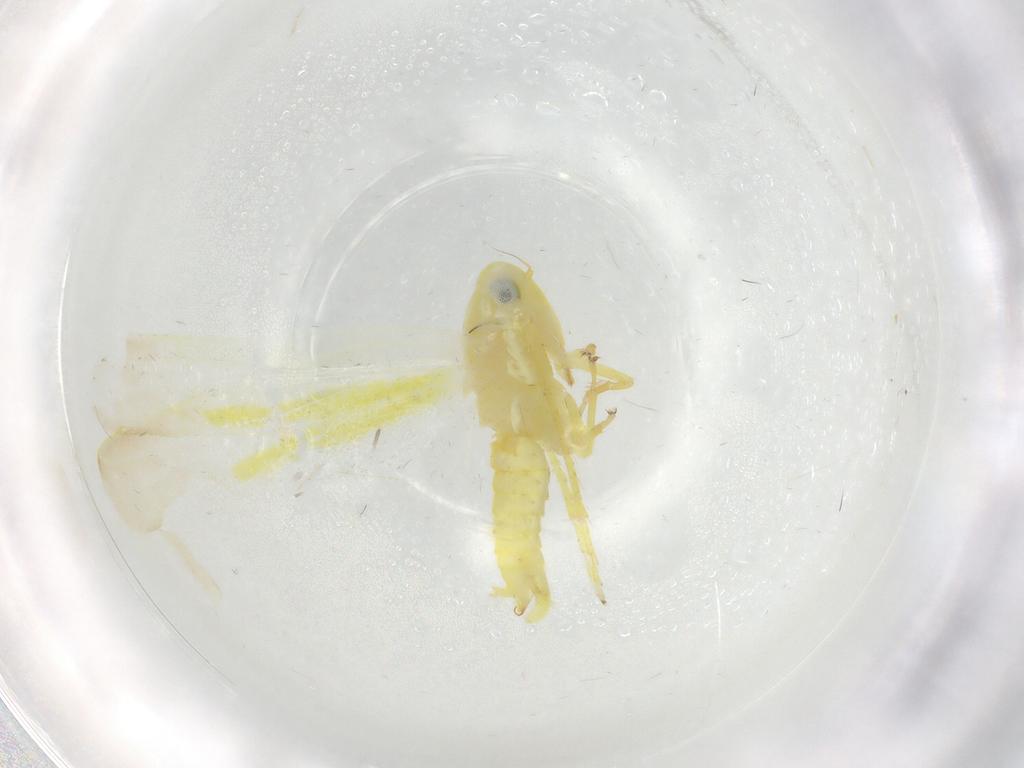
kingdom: Animalia
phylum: Arthropoda
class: Insecta
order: Hemiptera
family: Cicadellidae
